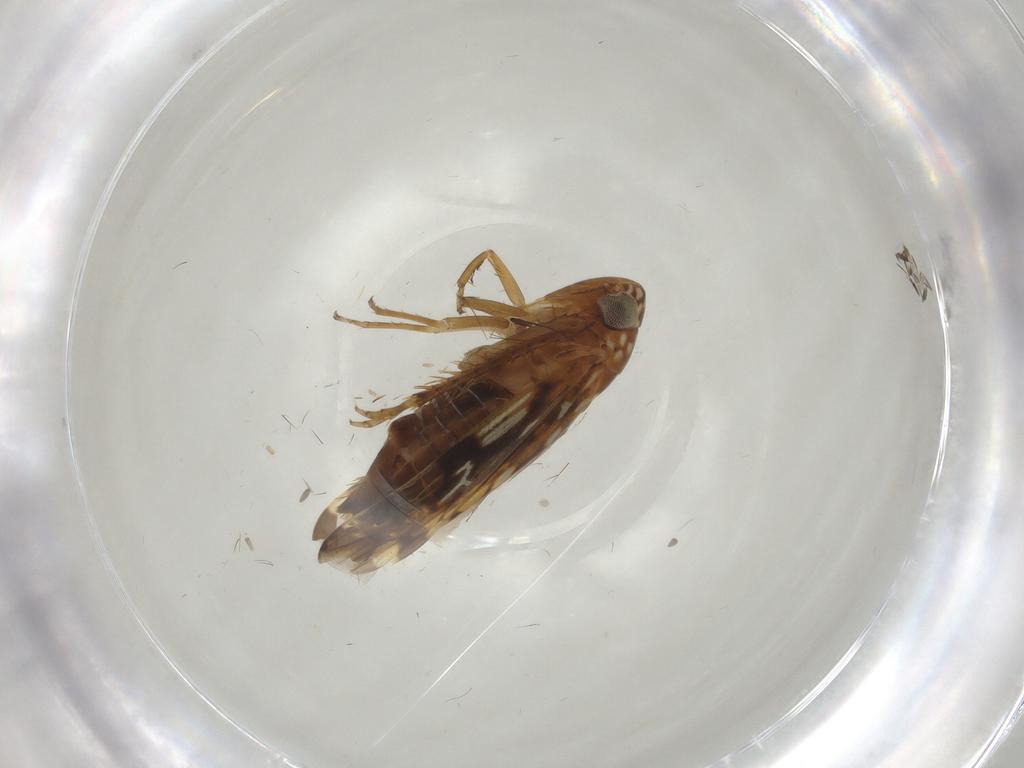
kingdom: Animalia
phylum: Arthropoda
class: Insecta
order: Hemiptera
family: Cicadellidae
